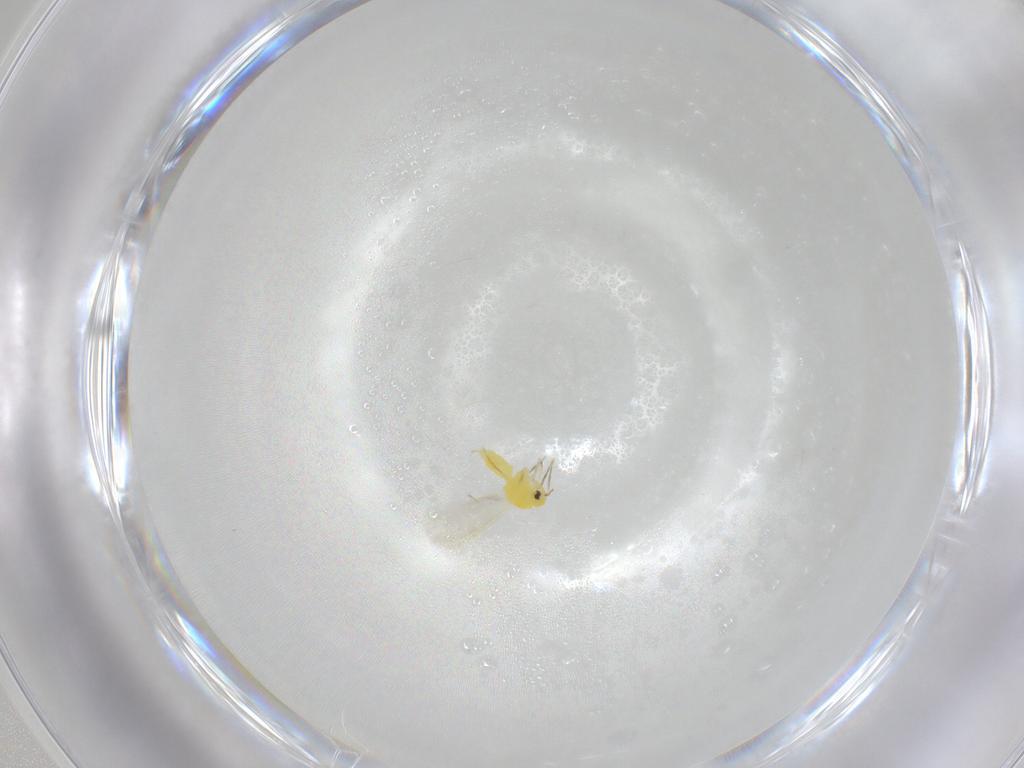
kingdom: Animalia
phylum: Arthropoda
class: Insecta
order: Hemiptera
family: Aleyrodidae
